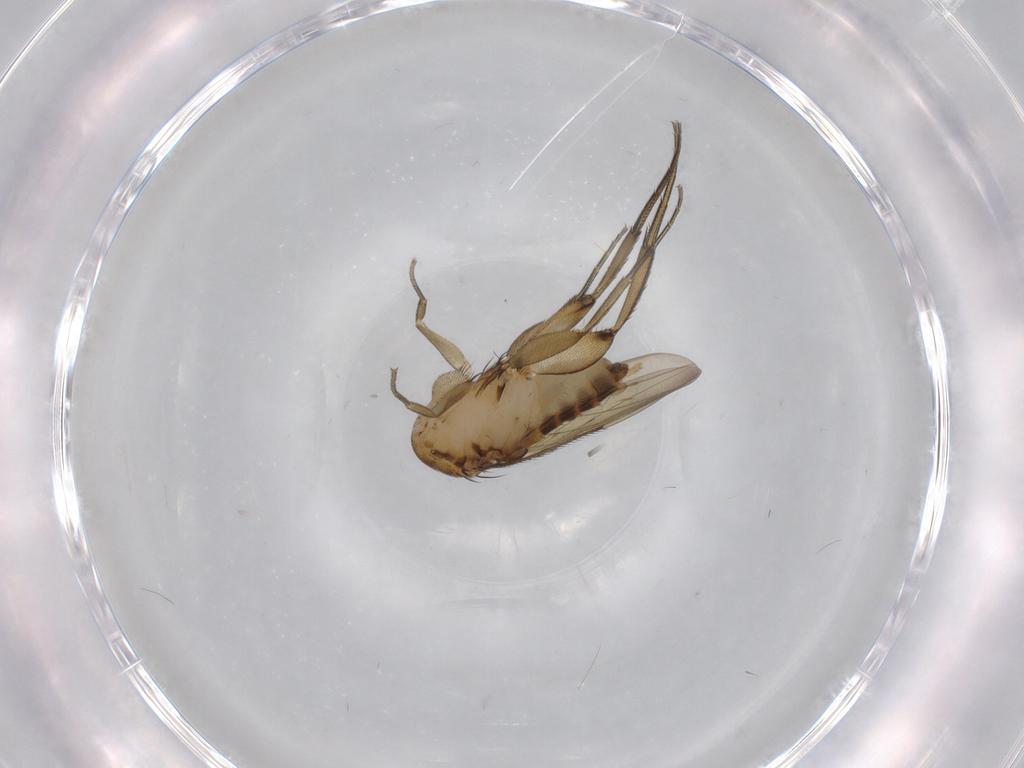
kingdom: Animalia
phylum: Arthropoda
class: Insecta
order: Diptera
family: Phoridae
